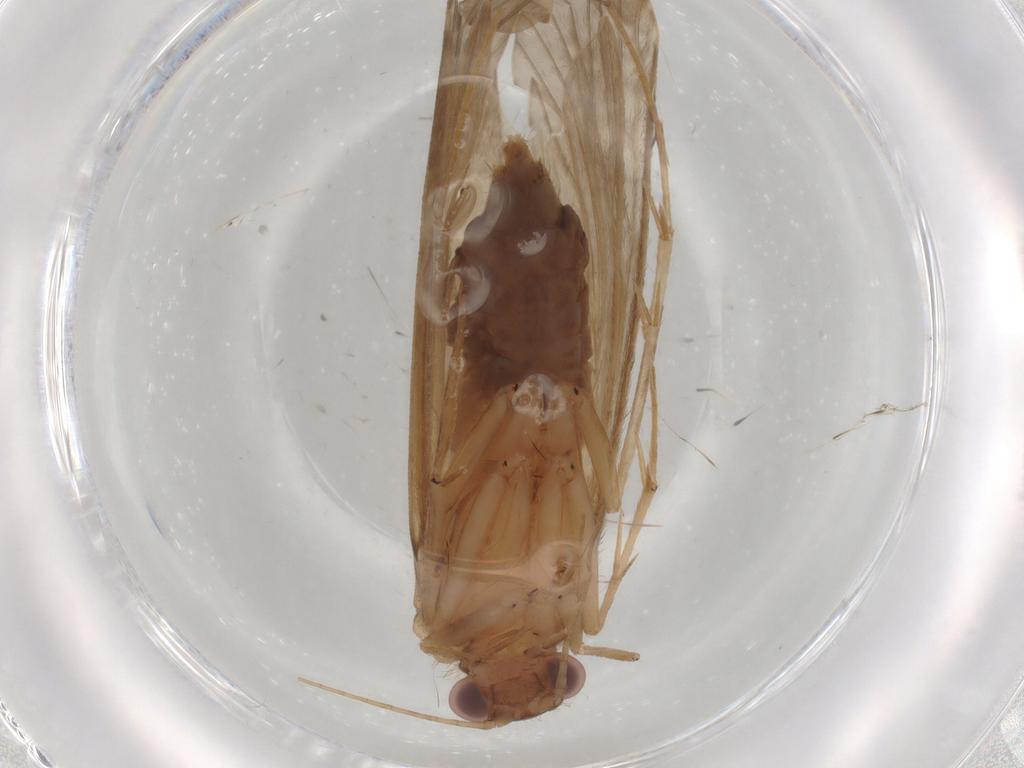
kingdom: Animalia
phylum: Arthropoda
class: Insecta
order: Trichoptera
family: Hydropsychidae
